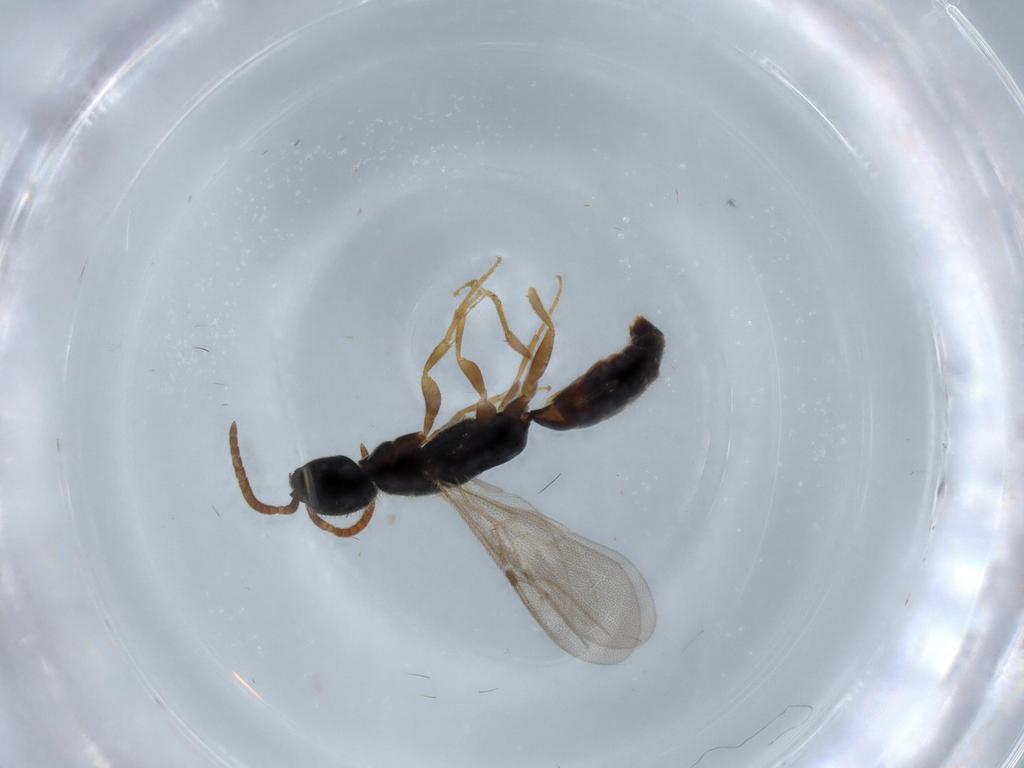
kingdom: Animalia
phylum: Arthropoda
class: Insecta
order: Hymenoptera
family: Bethylidae
